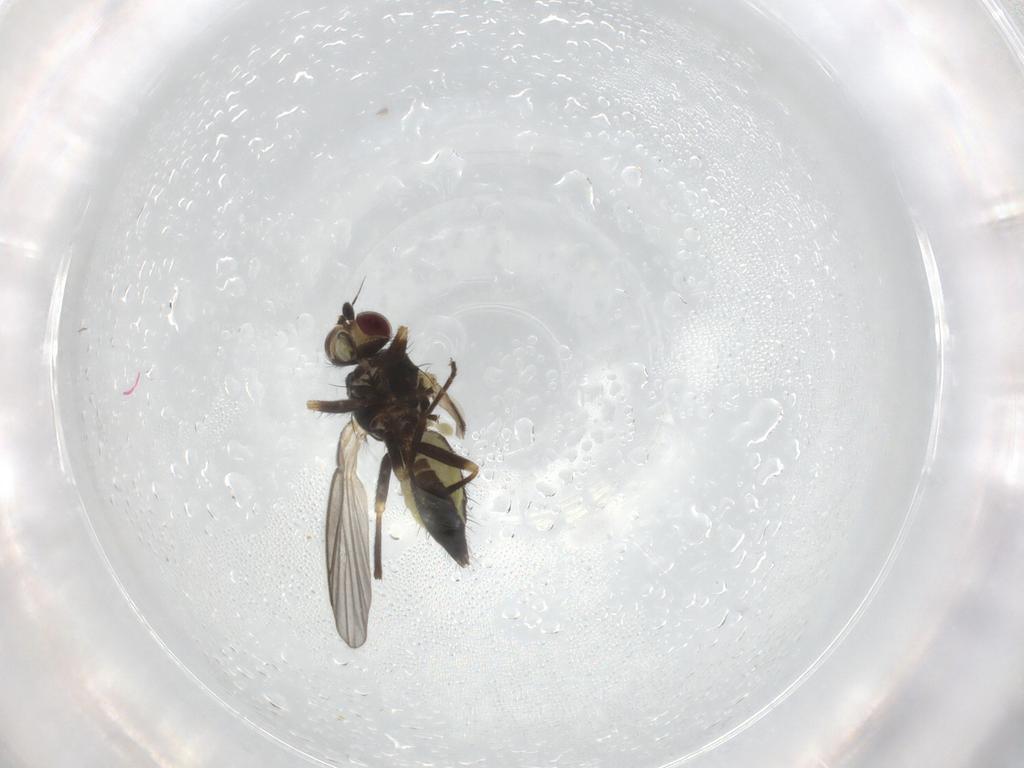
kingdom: Animalia
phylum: Arthropoda
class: Insecta
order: Diptera
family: Agromyzidae
